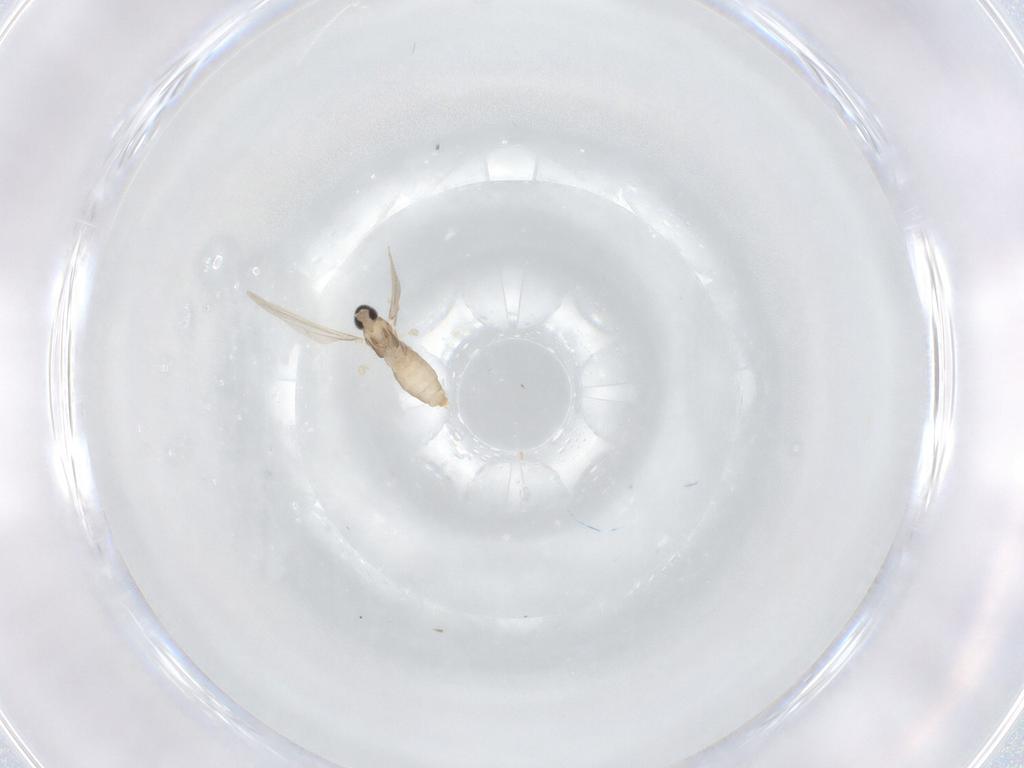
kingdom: Animalia
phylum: Arthropoda
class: Insecta
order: Diptera
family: Cecidomyiidae
